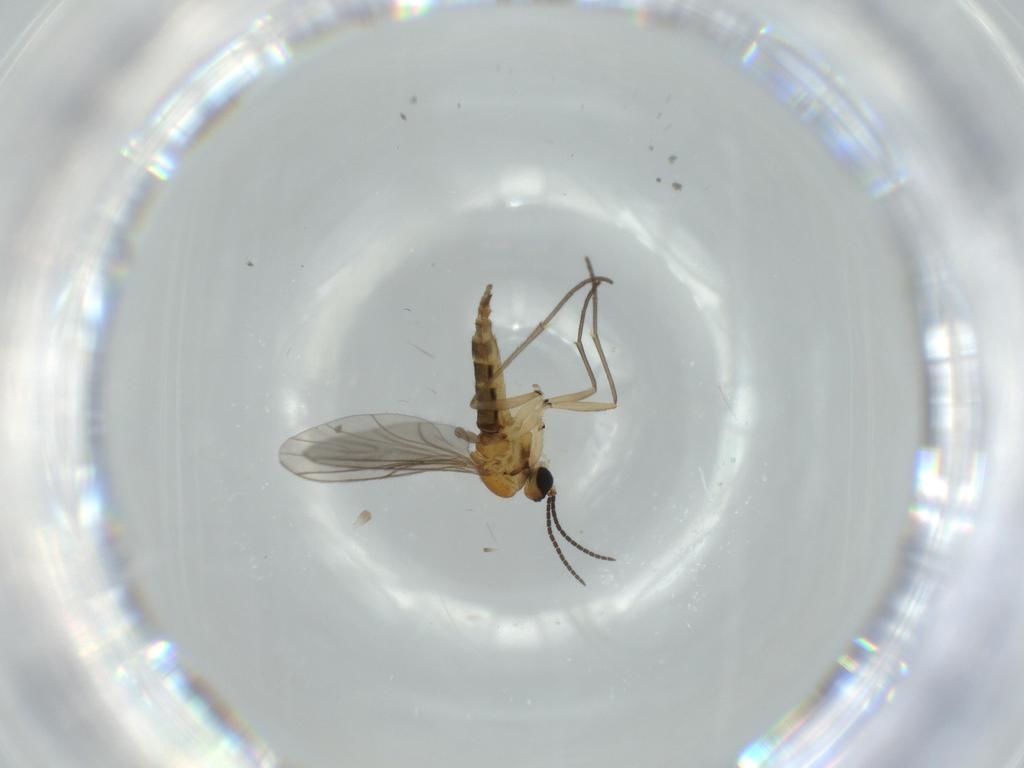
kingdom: Animalia
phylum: Arthropoda
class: Insecta
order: Diptera
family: Sciaridae
